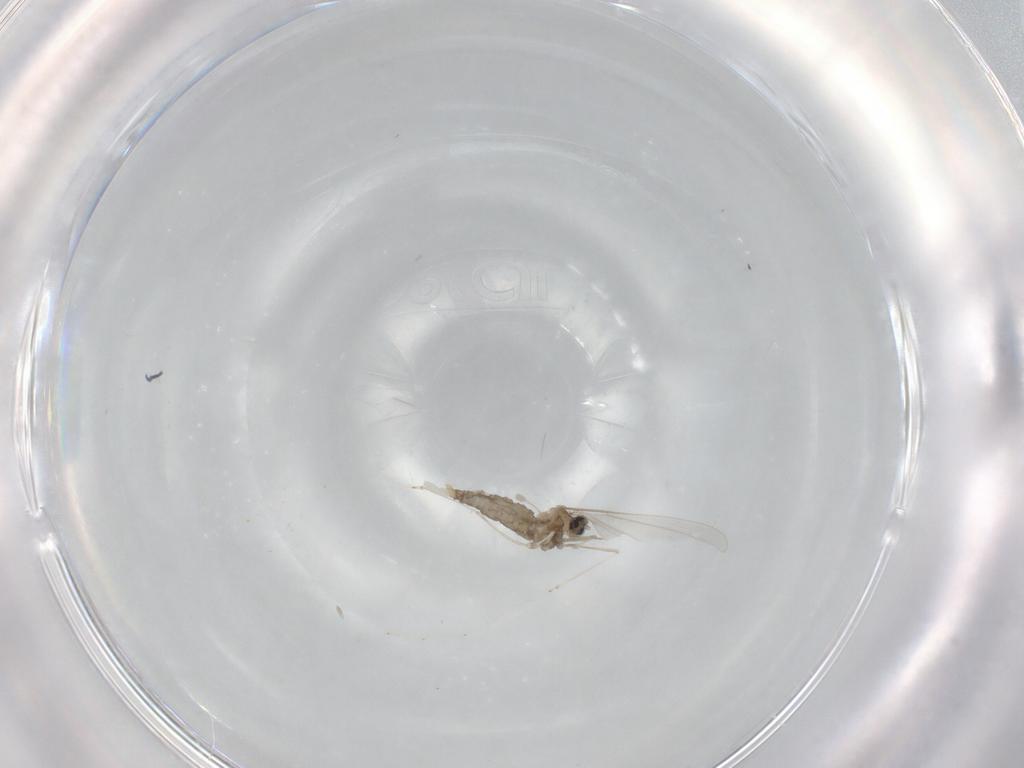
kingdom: Animalia
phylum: Arthropoda
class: Insecta
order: Diptera
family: Cecidomyiidae
